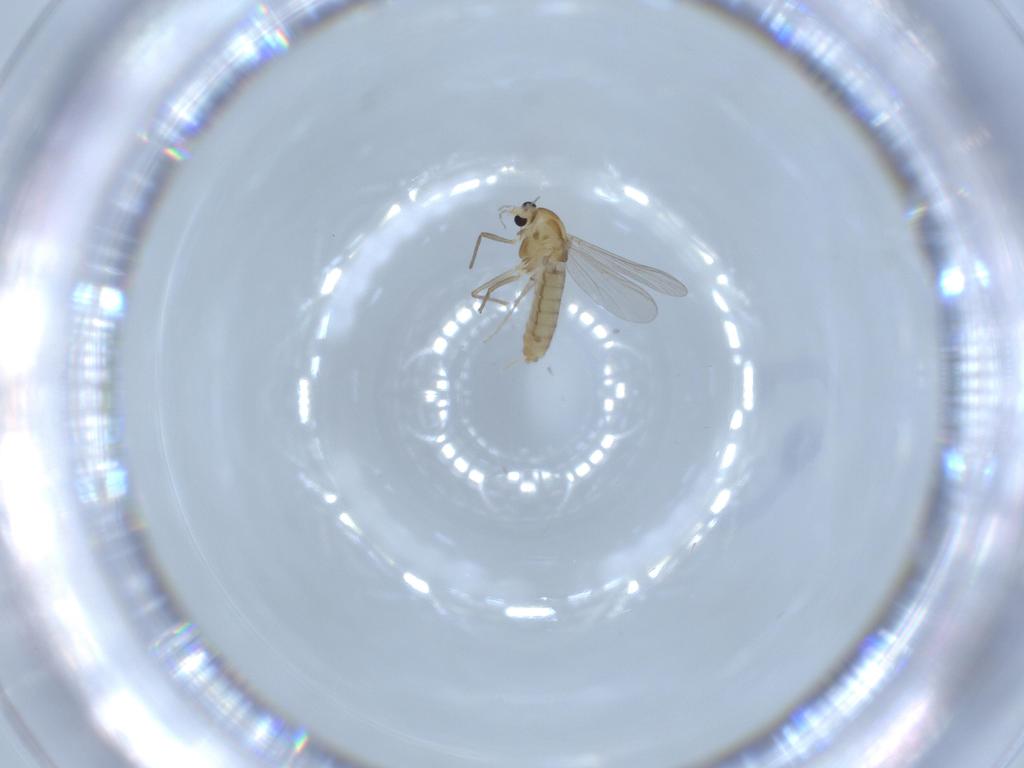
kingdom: Animalia
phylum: Arthropoda
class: Insecta
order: Diptera
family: Chironomidae
